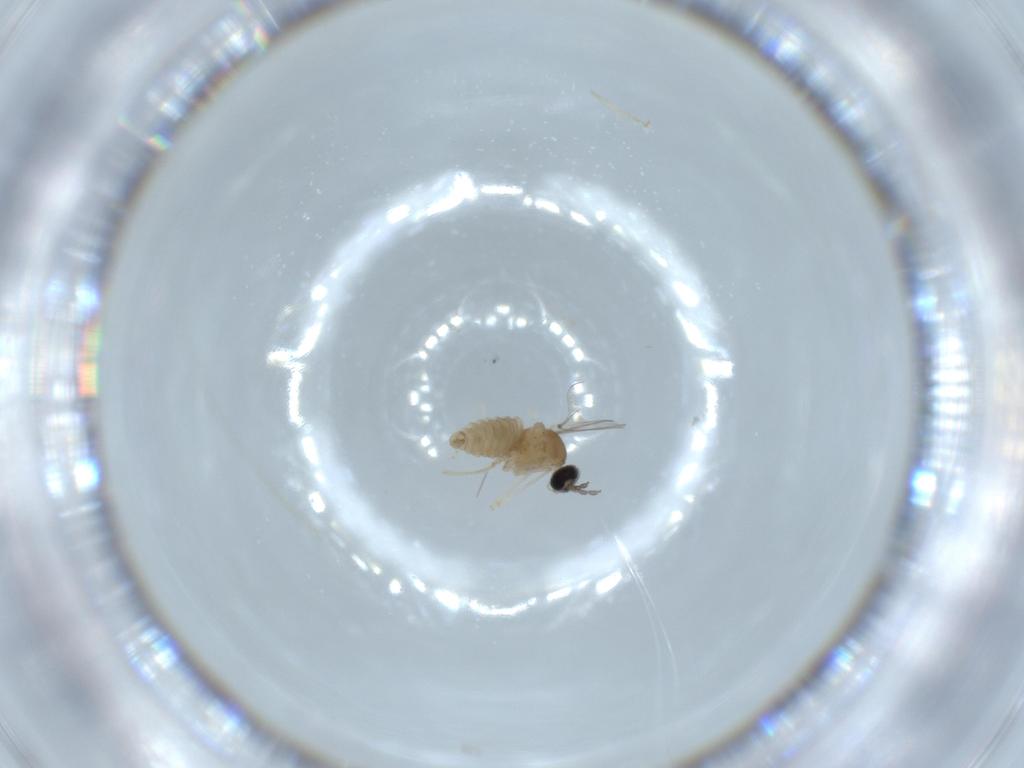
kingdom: Animalia
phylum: Arthropoda
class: Insecta
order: Diptera
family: Cecidomyiidae
